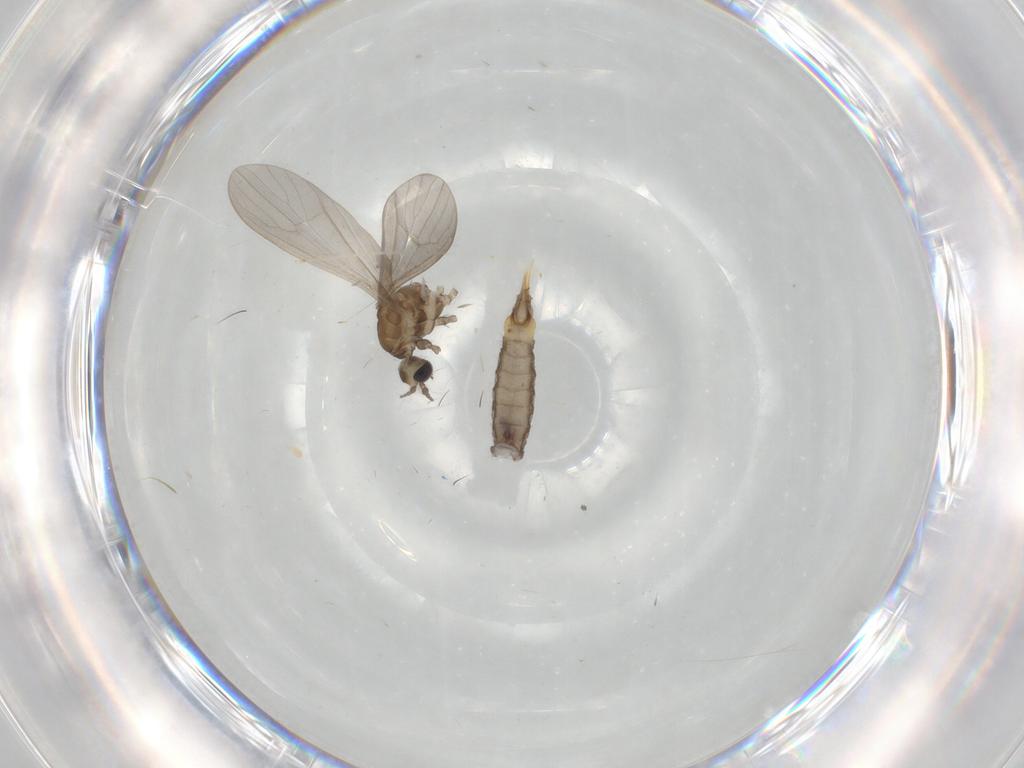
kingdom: Animalia
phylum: Arthropoda
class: Insecta
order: Diptera
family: Limoniidae
